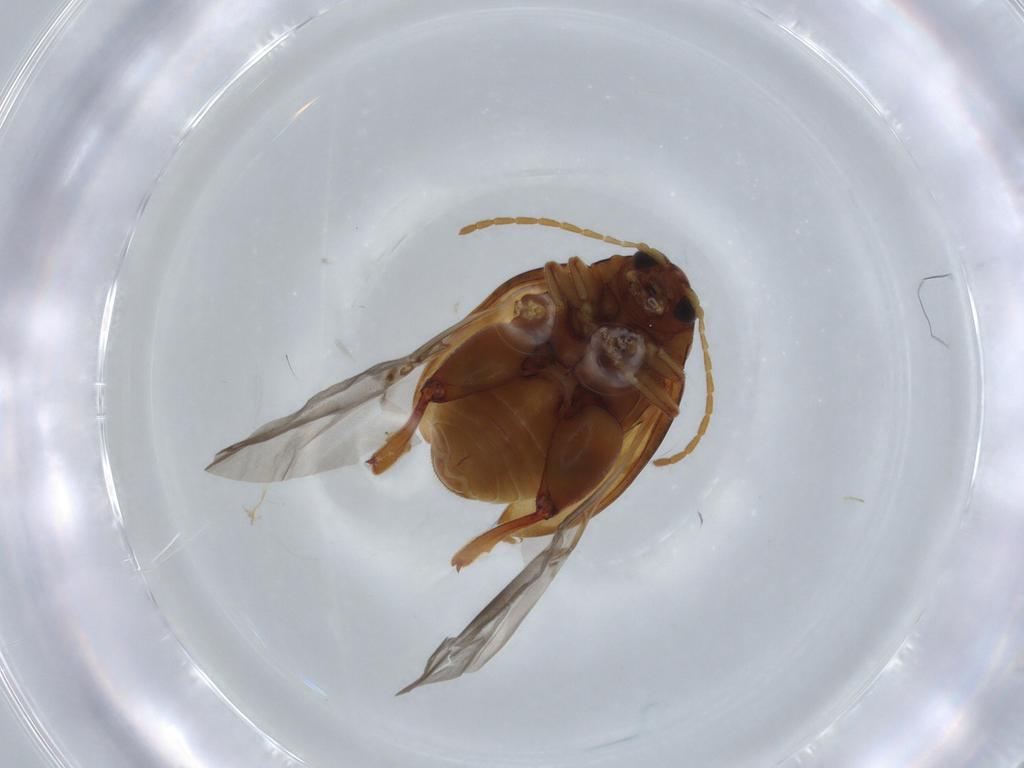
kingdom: Animalia
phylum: Arthropoda
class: Insecta
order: Coleoptera
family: Chrysomelidae
